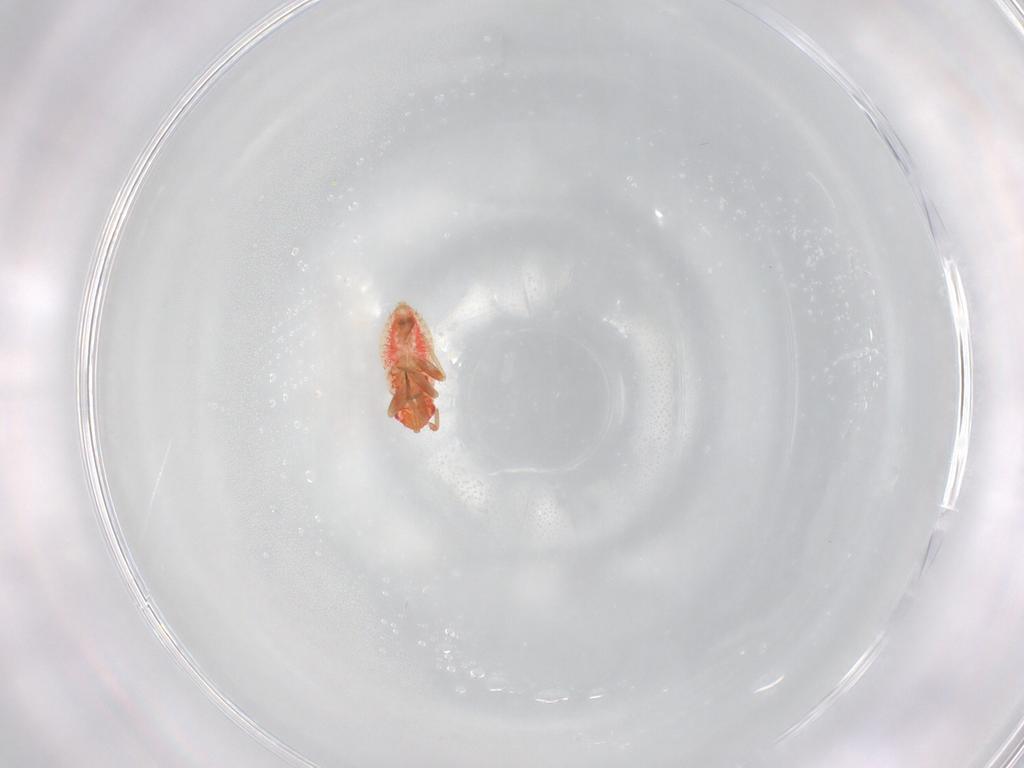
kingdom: Animalia
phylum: Arthropoda
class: Insecta
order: Hemiptera
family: Miridae
